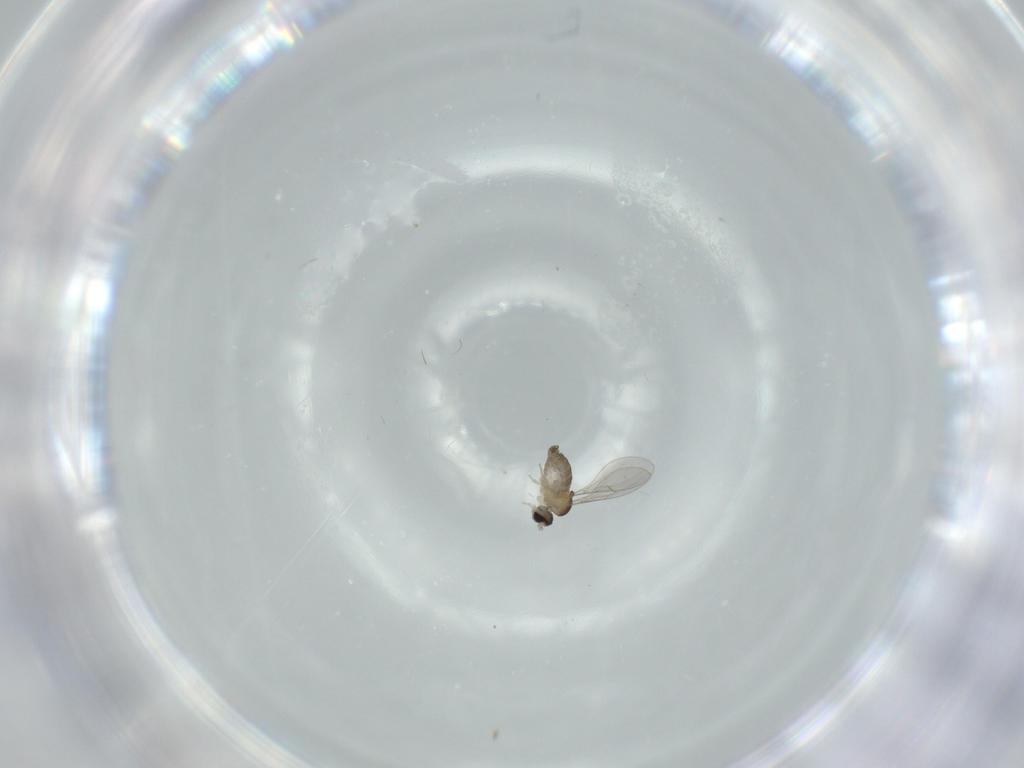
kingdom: Animalia
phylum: Arthropoda
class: Insecta
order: Diptera
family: Cecidomyiidae
